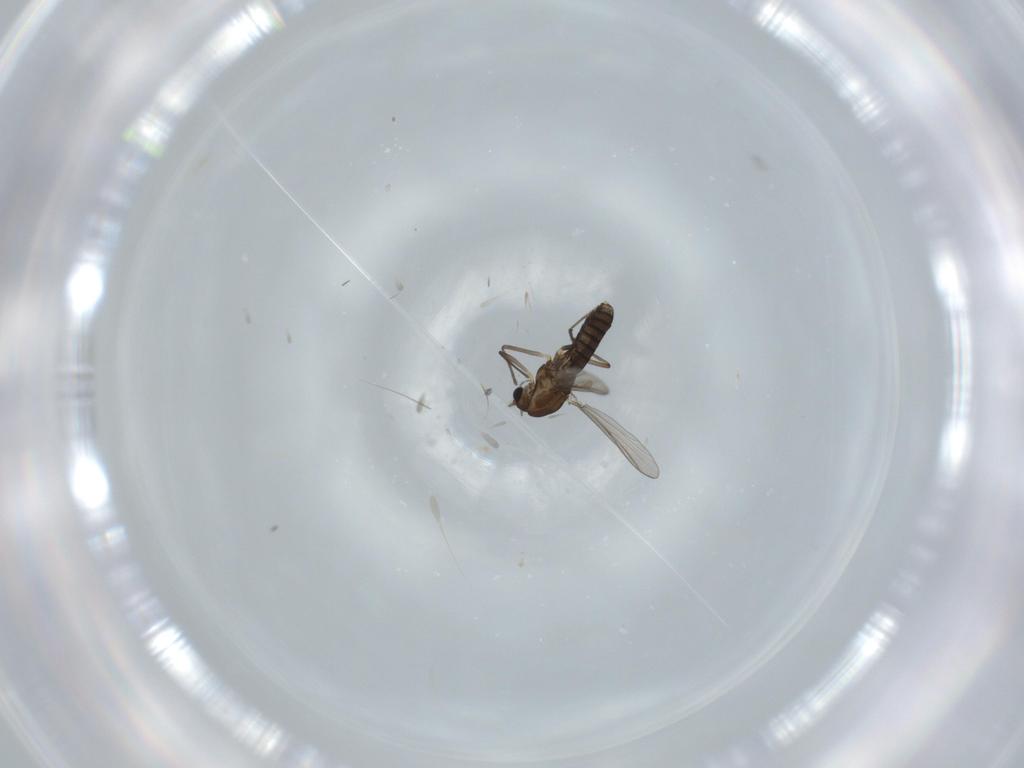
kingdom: Animalia
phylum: Arthropoda
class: Insecta
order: Diptera
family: Chironomidae
